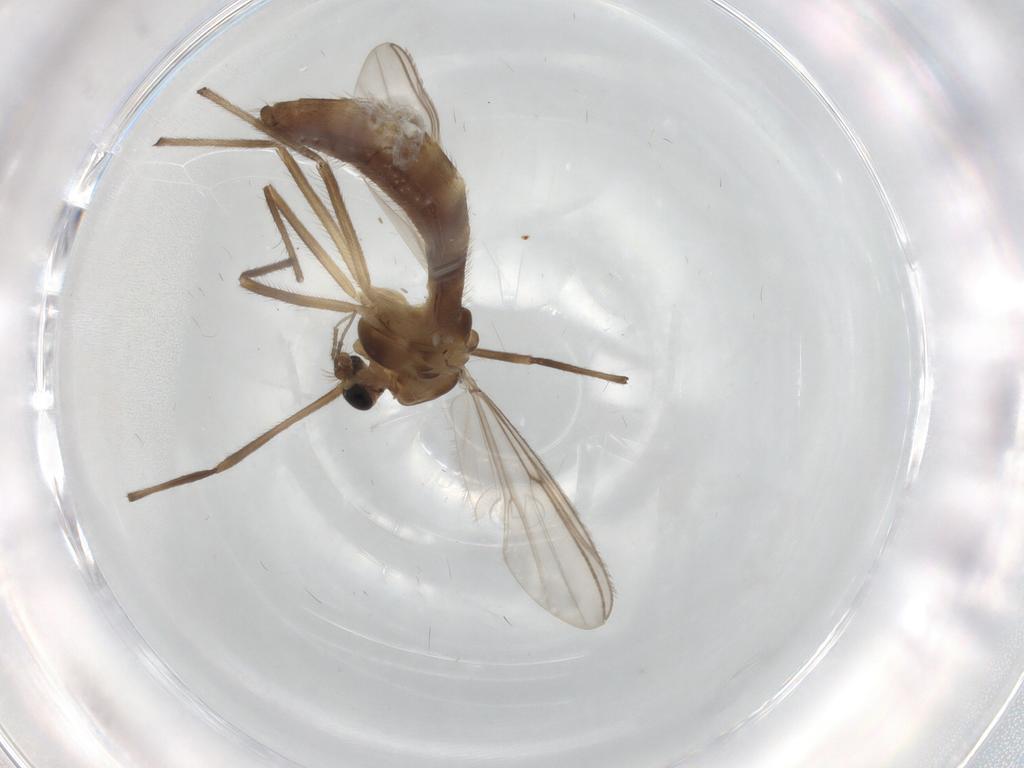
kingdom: Animalia
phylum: Arthropoda
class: Insecta
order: Diptera
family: Chironomidae
